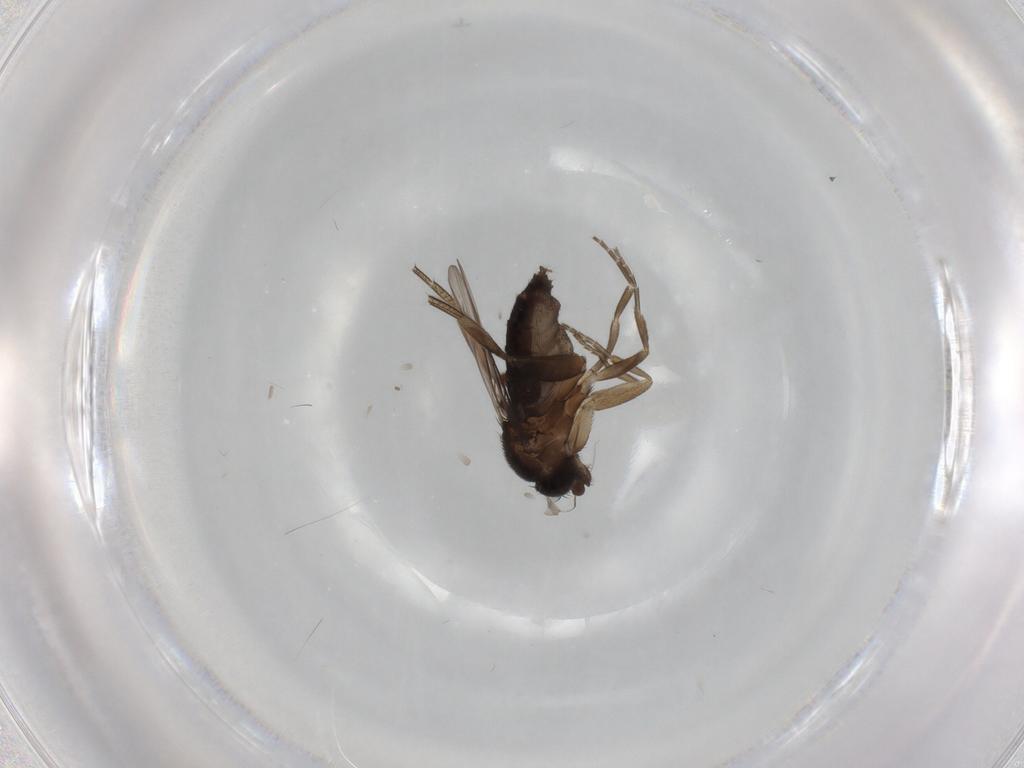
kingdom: Animalia
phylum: Arthropoda
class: Insecta
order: Diptera
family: Phoridae
